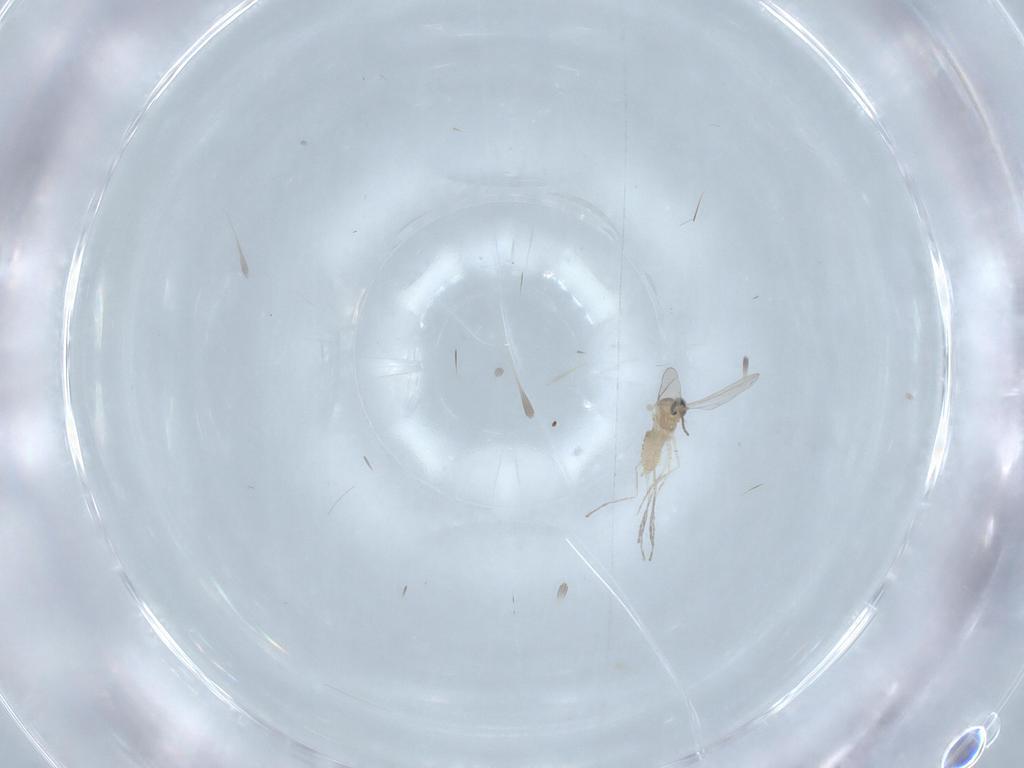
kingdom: Animalia
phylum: Arthropoda
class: Insecta
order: Diptera
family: Cecidomyiidae
